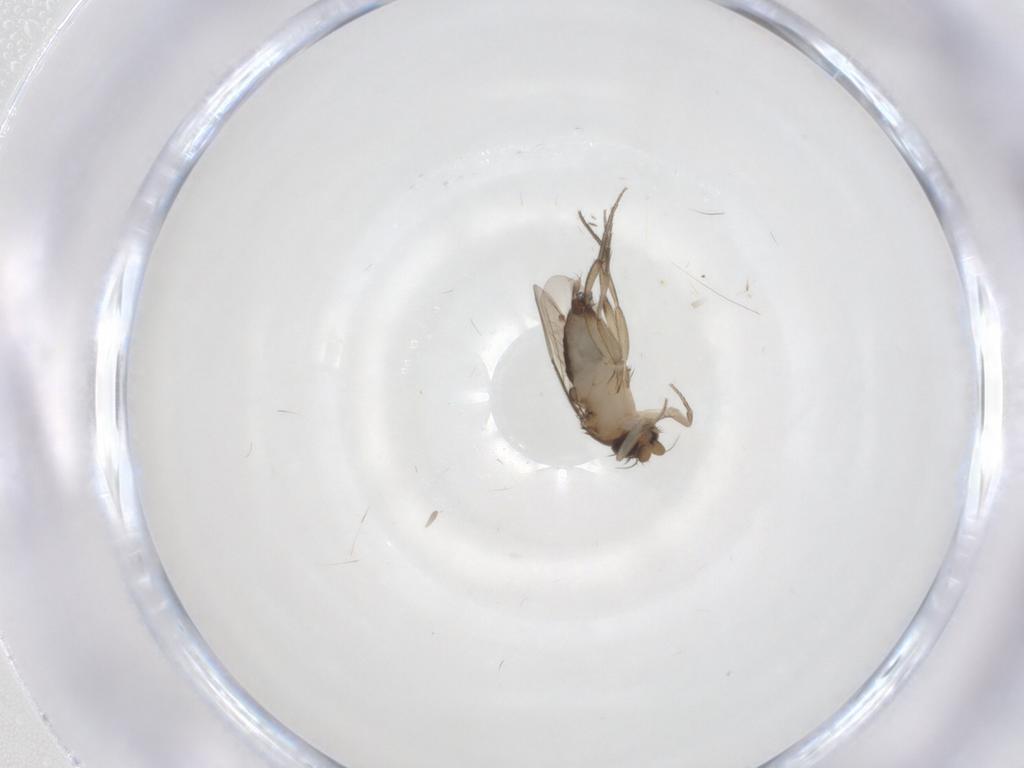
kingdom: Animalia
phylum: Arthropoda
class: Insecta
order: Diptera
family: Phoridae
